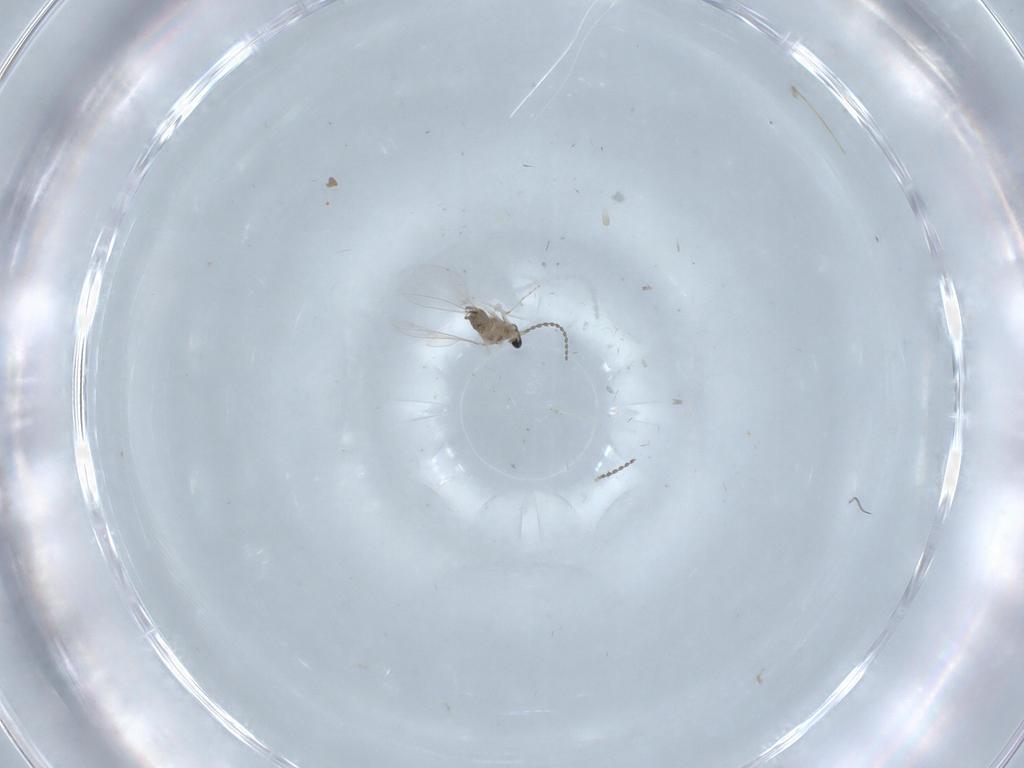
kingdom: Animalia
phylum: Arthropoda
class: Insecta
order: Diptera
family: Cecidomyiidae
